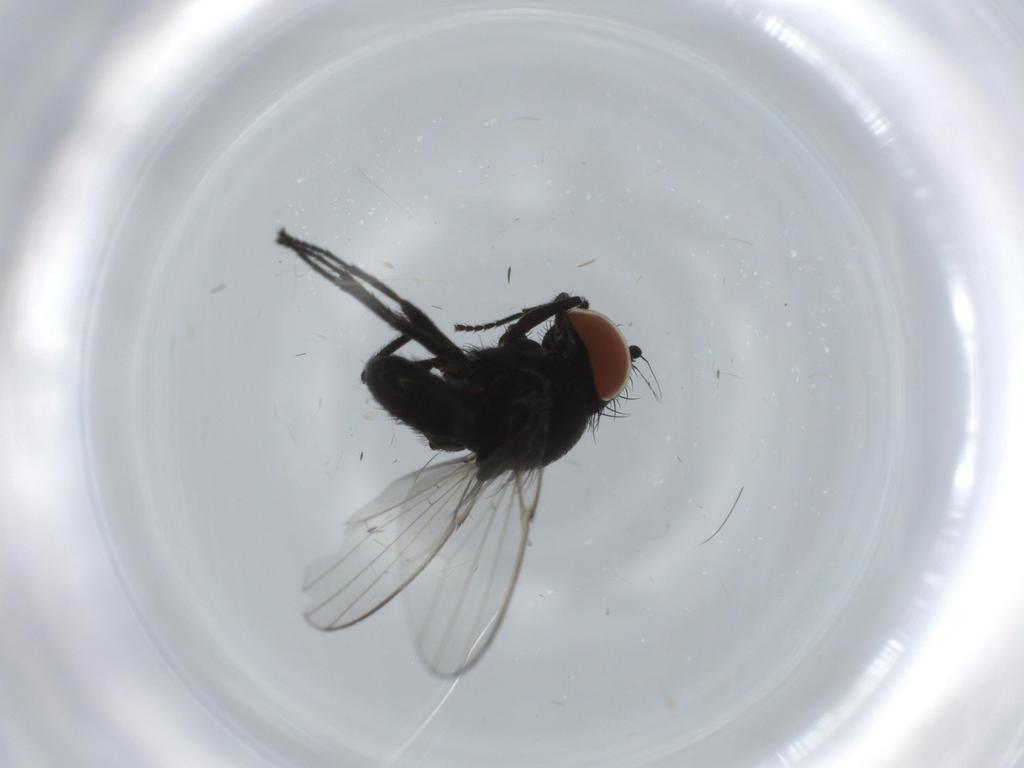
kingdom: Animalia
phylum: Arthropoda
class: Insecta
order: Diptera
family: Milichiidae
